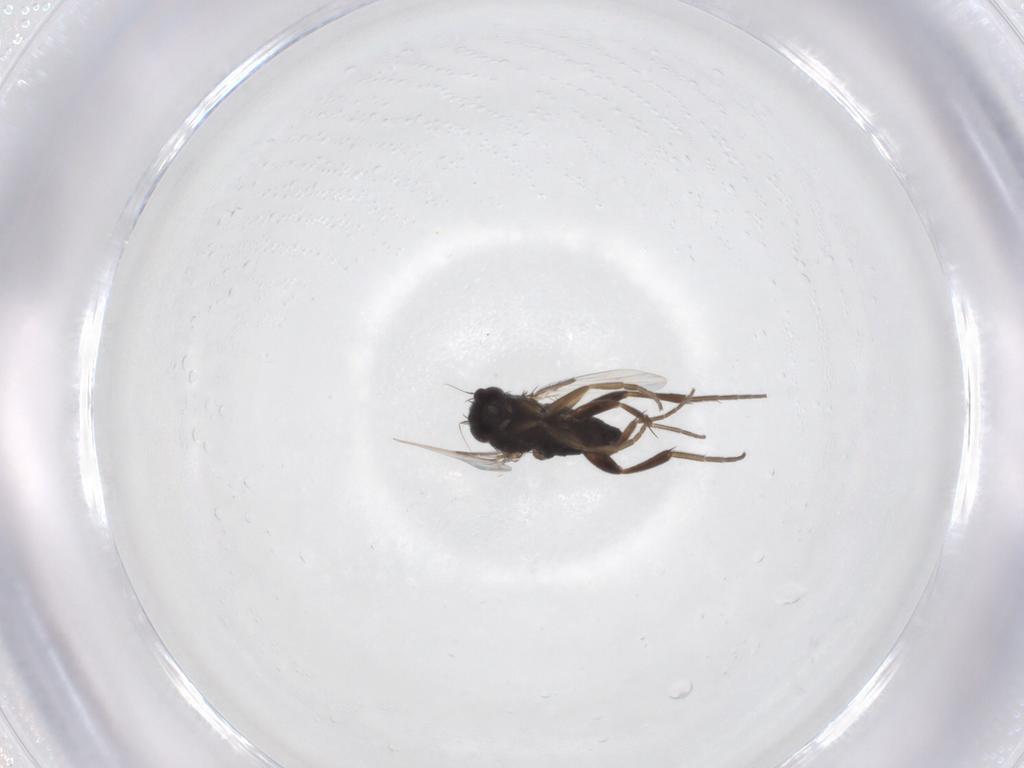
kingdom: Animalia
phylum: Arthropoda
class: Insecta
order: Diptera
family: Phoridae
